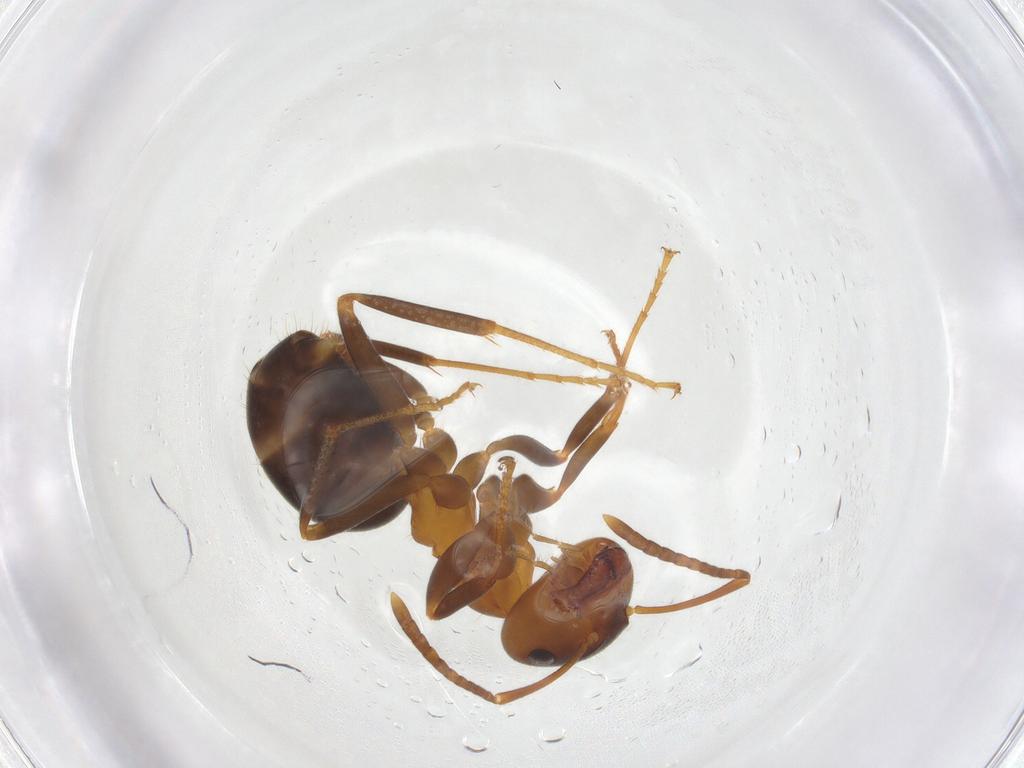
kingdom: Animalia
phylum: Arthropoda
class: Insecta
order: Hymenoptera
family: Formicidae
